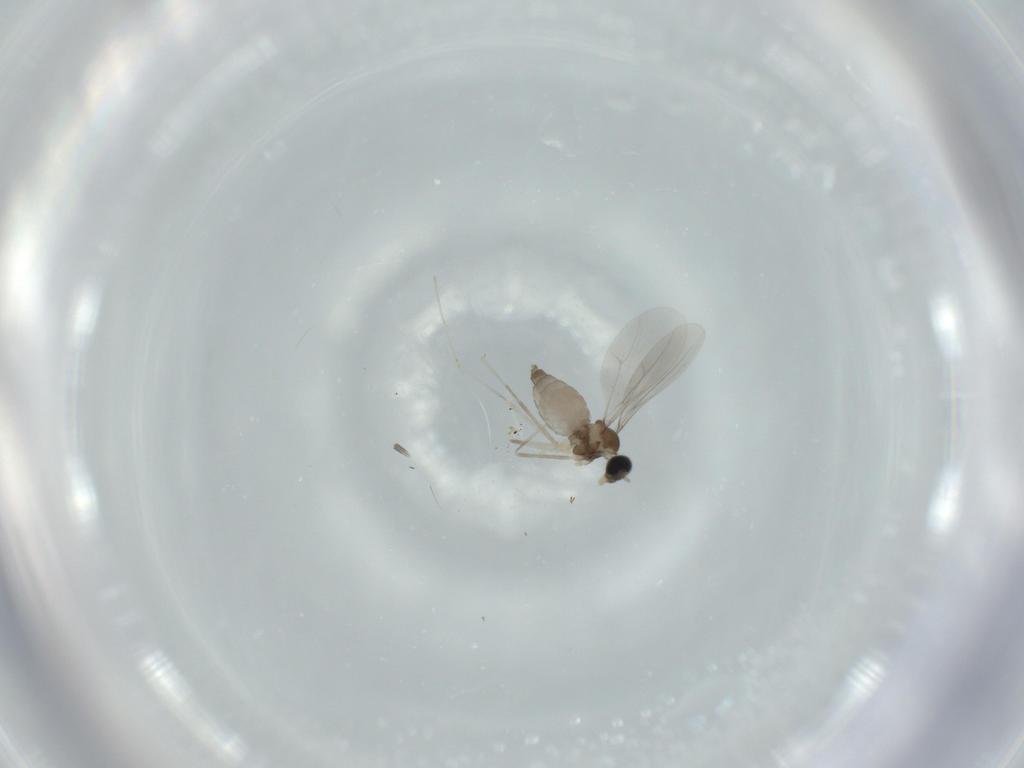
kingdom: Animalia
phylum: Arthropoda
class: Insecta
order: Diptera
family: Cecidomyiidae
